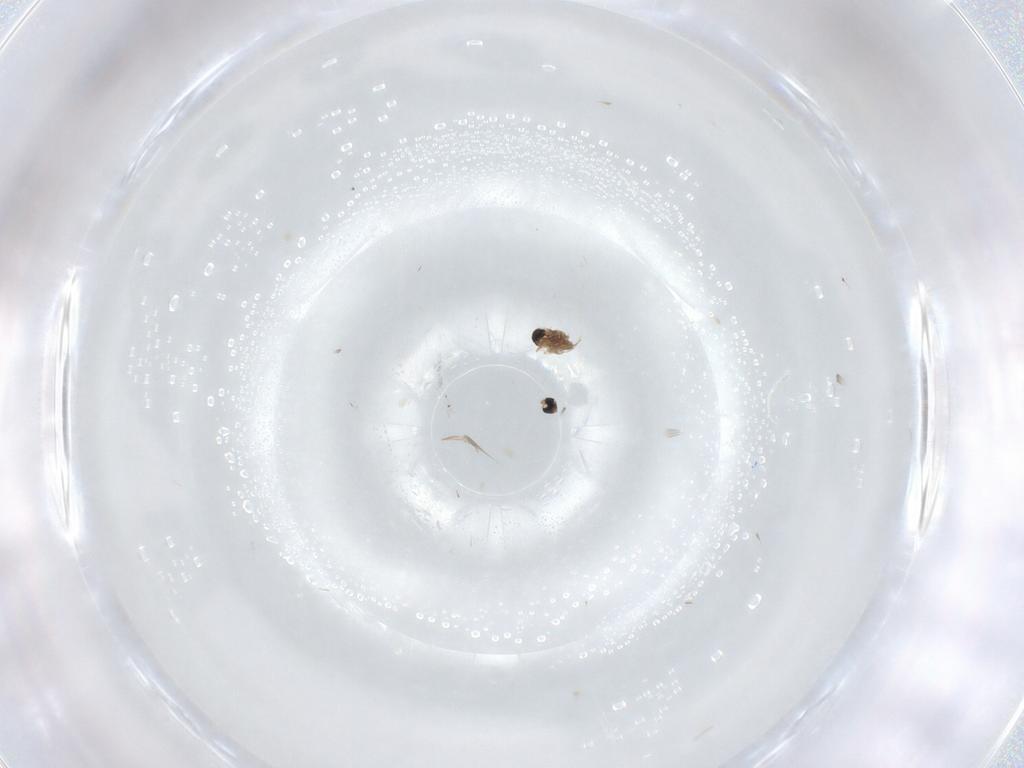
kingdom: Animalia
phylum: Arthropoda
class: Insecta
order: Diptera
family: Cecidomyiidae
